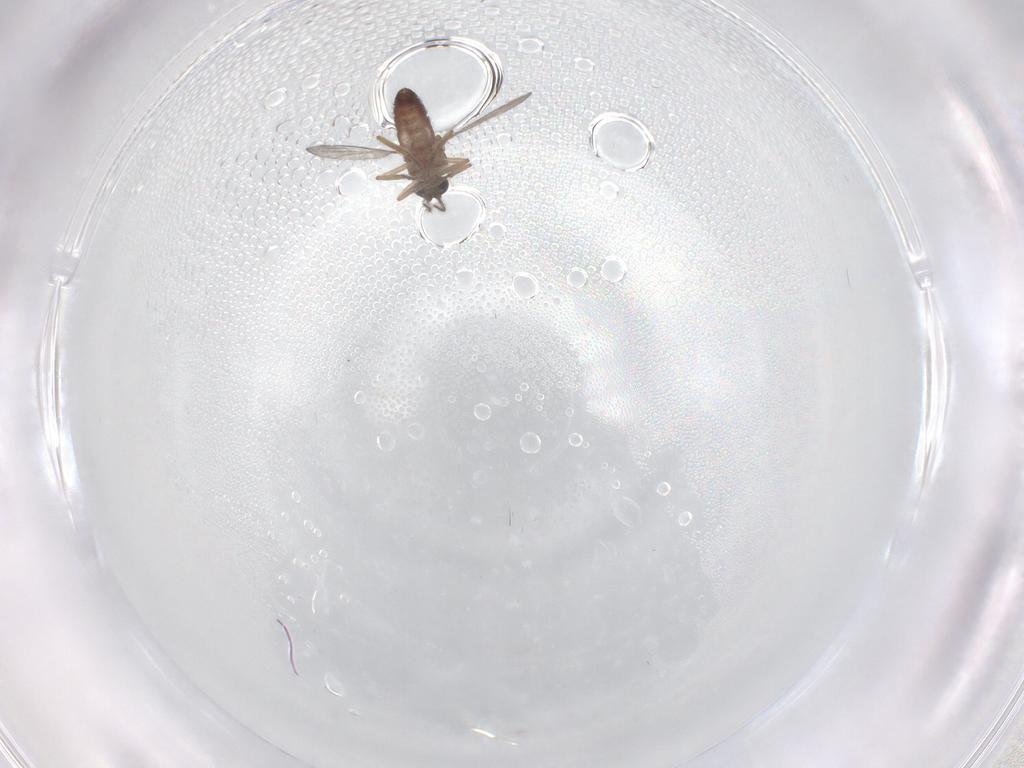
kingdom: Animalia
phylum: Arthropoda
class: Insecta
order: Diptera
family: Ceratopogonidae
